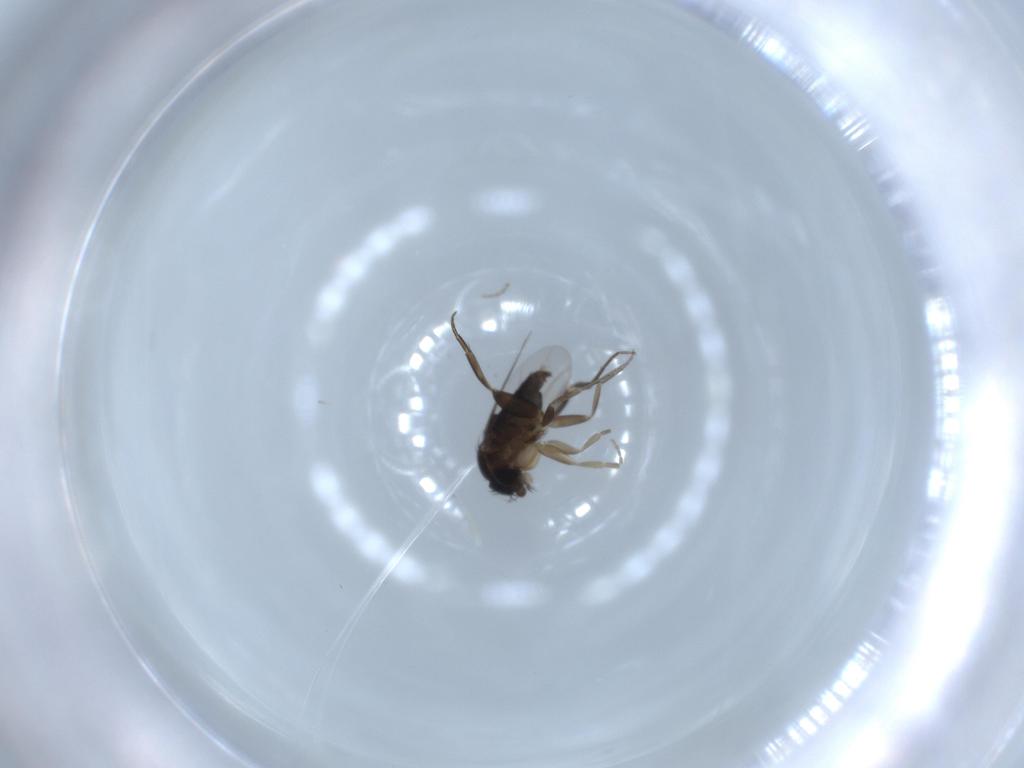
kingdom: Animalia
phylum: Arthropoda
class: Insecta
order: Diptera
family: Phoridae
